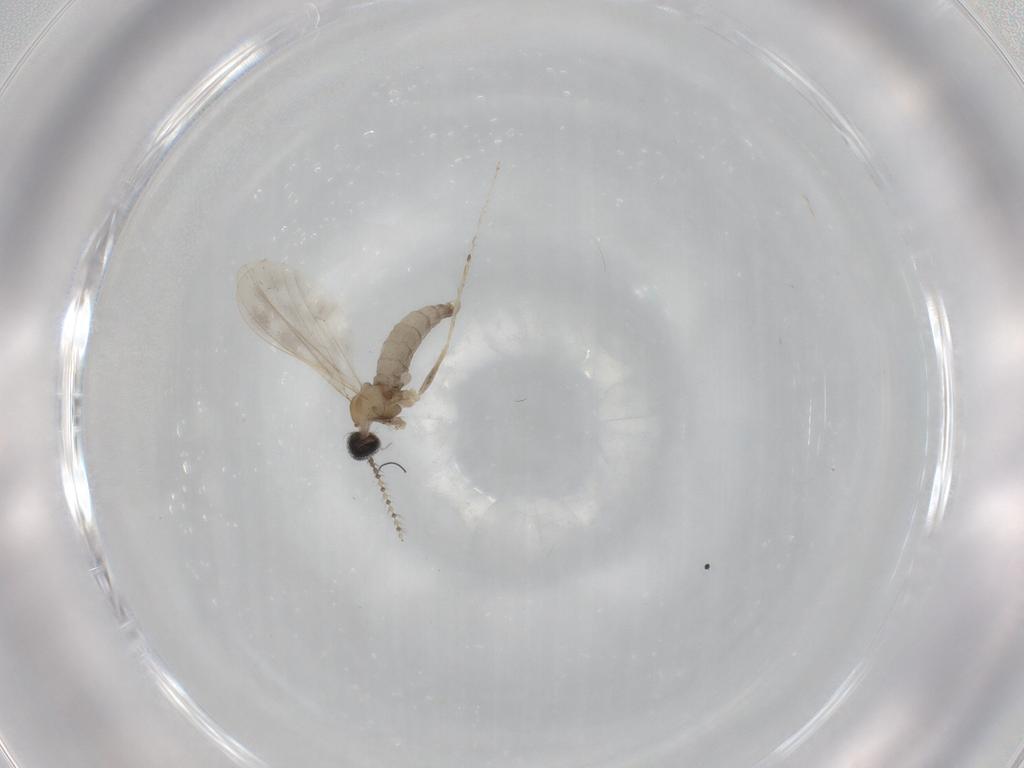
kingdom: Animalia
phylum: Arthropoda
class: Insecta
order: Diptera
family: Cecidomyiidae
